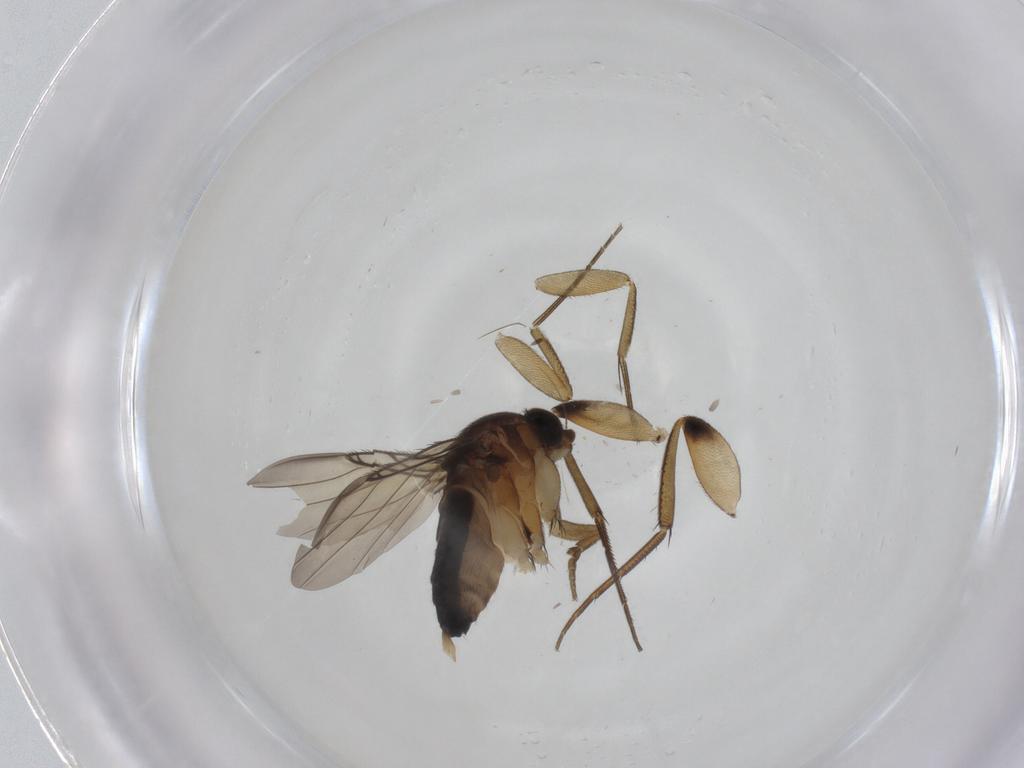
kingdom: Animalia
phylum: Arthropoda
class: Insecta
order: Diptera
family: Phoridae
